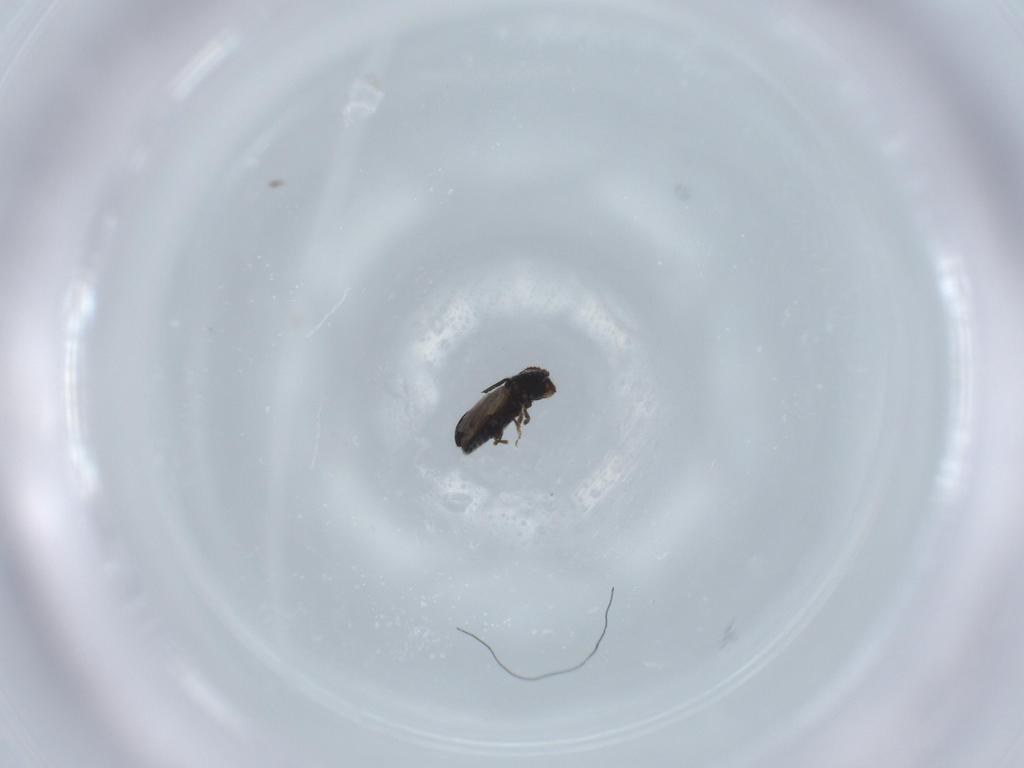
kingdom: Animalia
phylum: Arthropoda
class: Insecta
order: Coleoptera
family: Curculionidae
